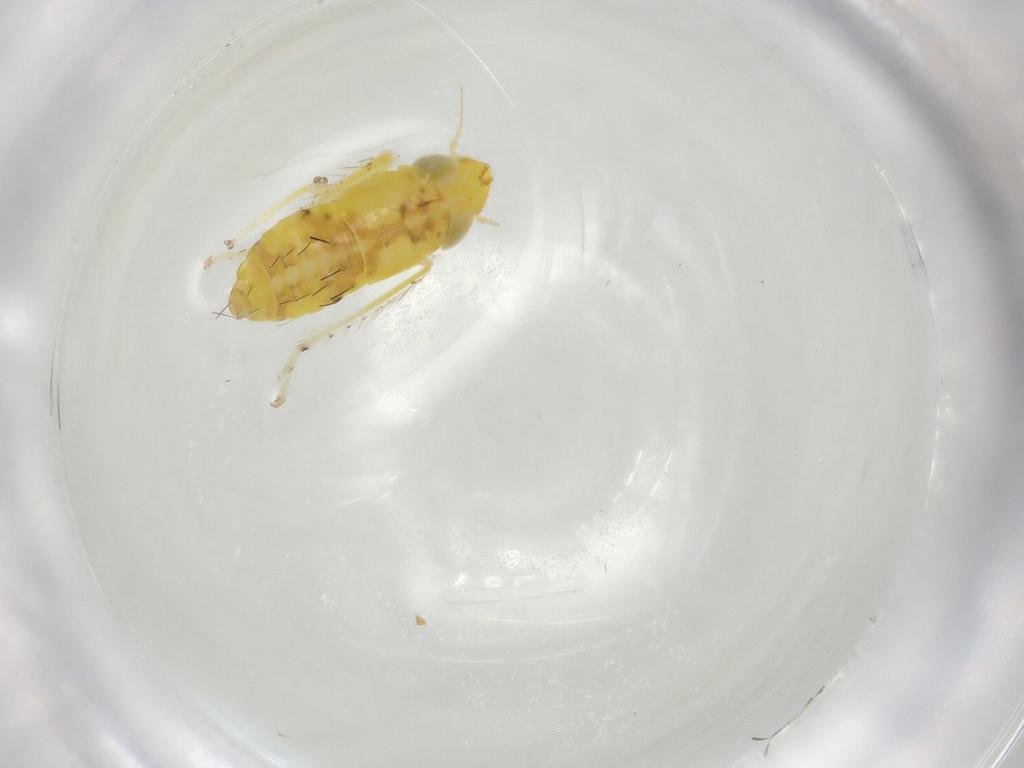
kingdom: Animalia
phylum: Arthropoda
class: Insecta
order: Hemiptera
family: Cicadellidae
